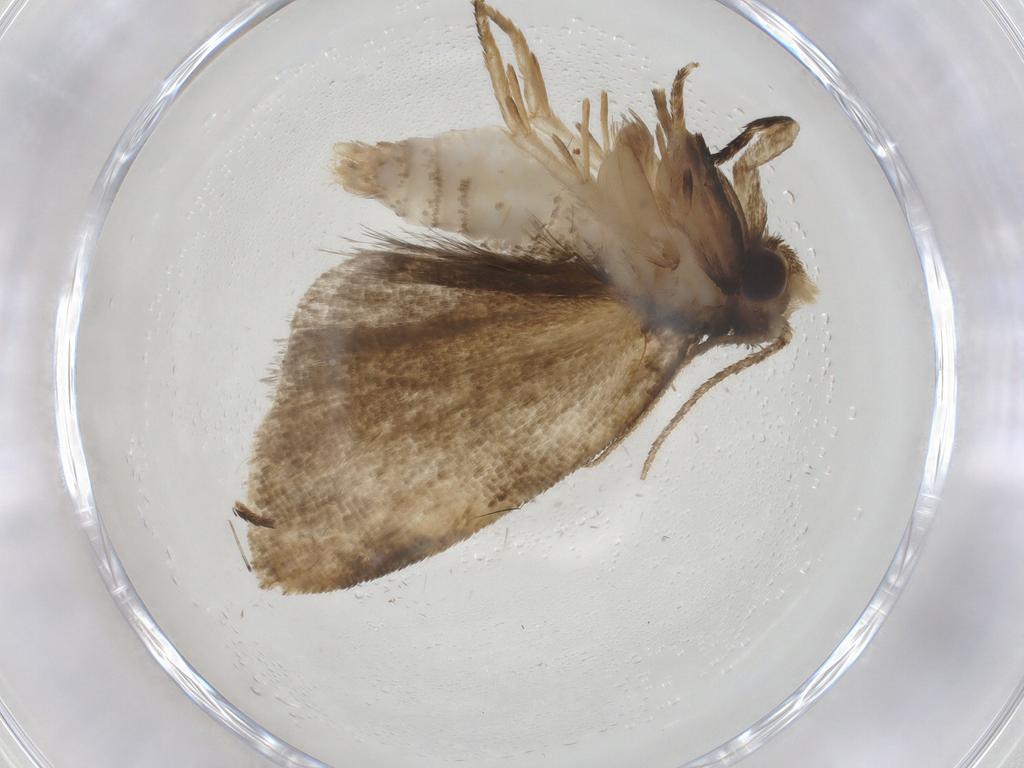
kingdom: Animalia
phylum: Arthropoda
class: Insecta
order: Lepidoptera
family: Tortricidae
